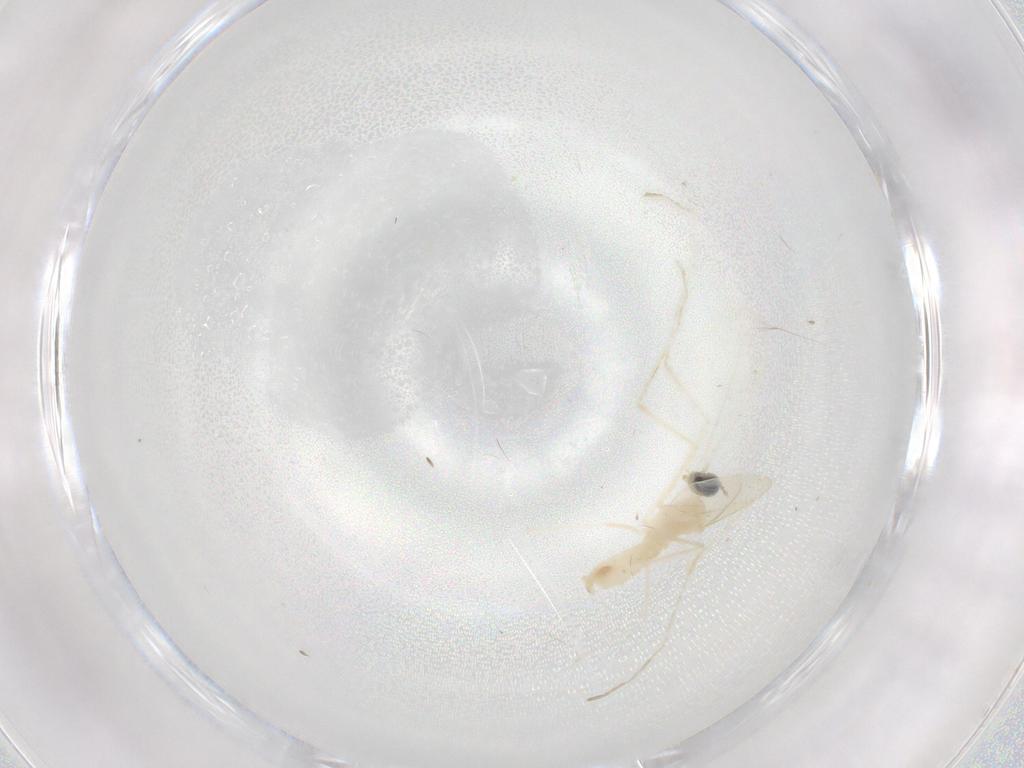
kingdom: Animalia
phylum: Arthropoda
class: Insecta
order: Diptera
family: Cecidomyiidae
